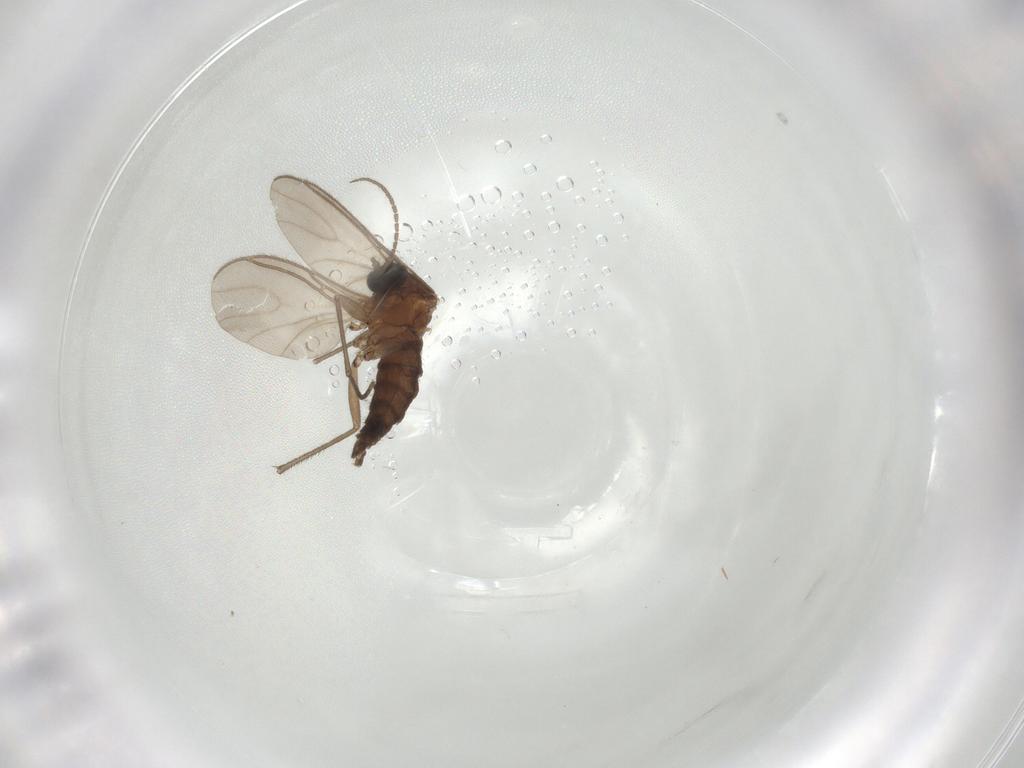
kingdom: Animalia
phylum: Arthropoda
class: Insecta
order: Diptera
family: Sciaridae
